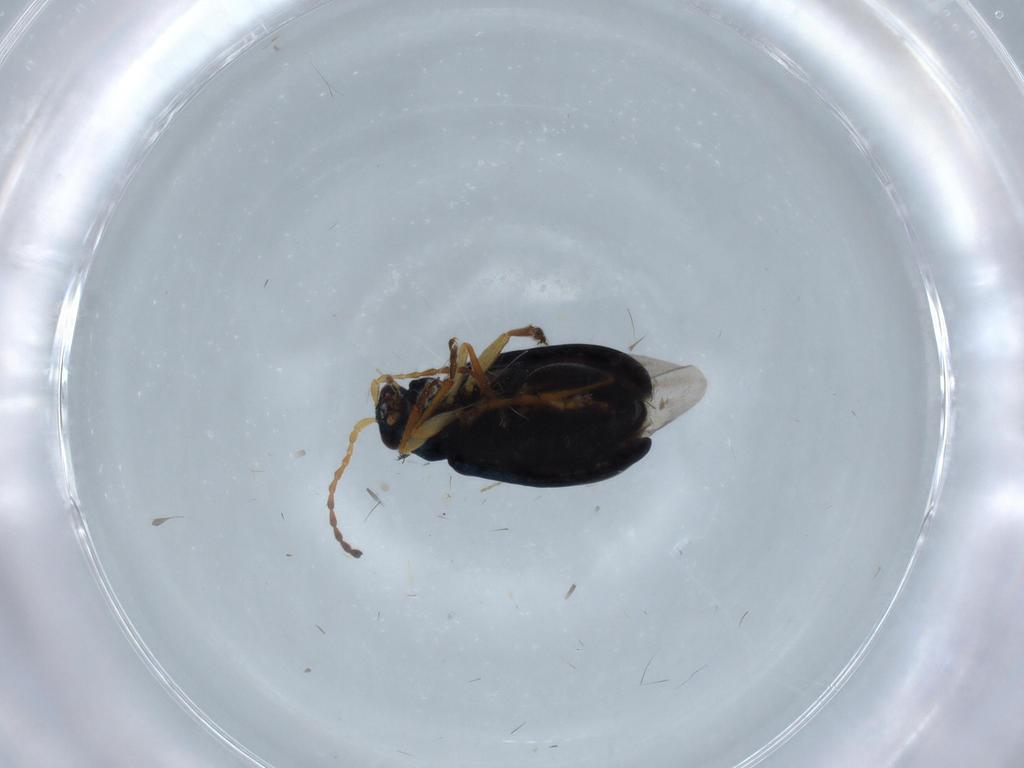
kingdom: Animalia
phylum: Arthropoda
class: Insecta
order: Coleoptera
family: Chrysomelidae
